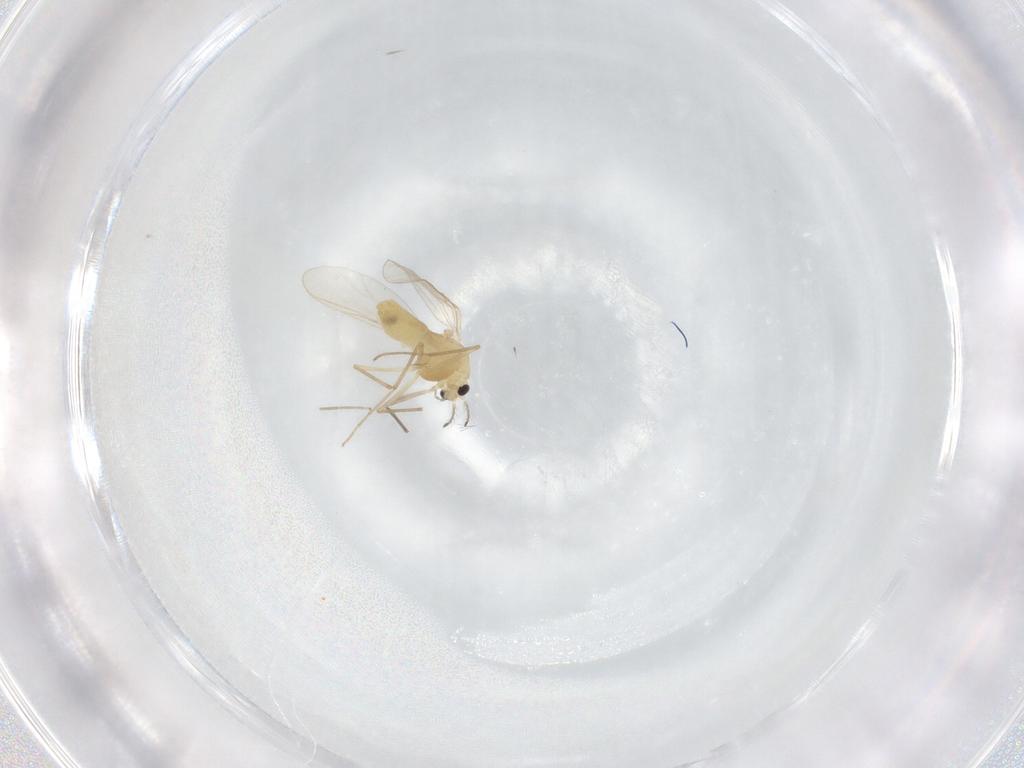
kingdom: Animalia
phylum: Arthropoda
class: Insecta
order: Diptera
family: Chironomidae
